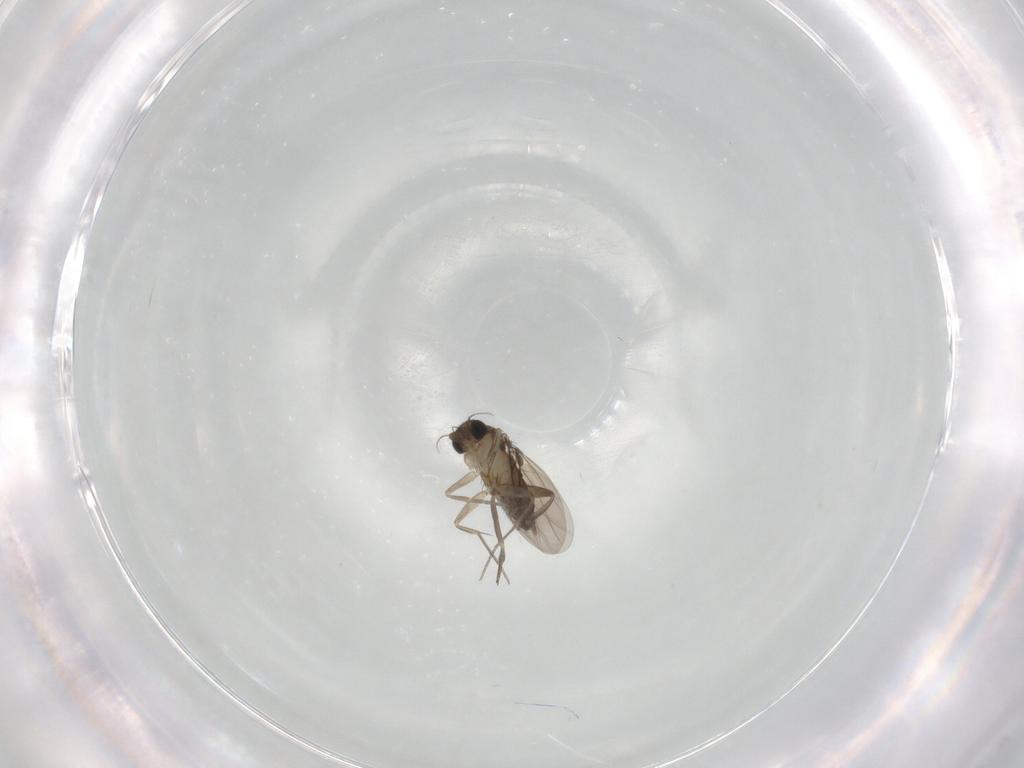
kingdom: Animalia
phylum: Arthropoda
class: Insecta
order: Diptera
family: Phoridae
